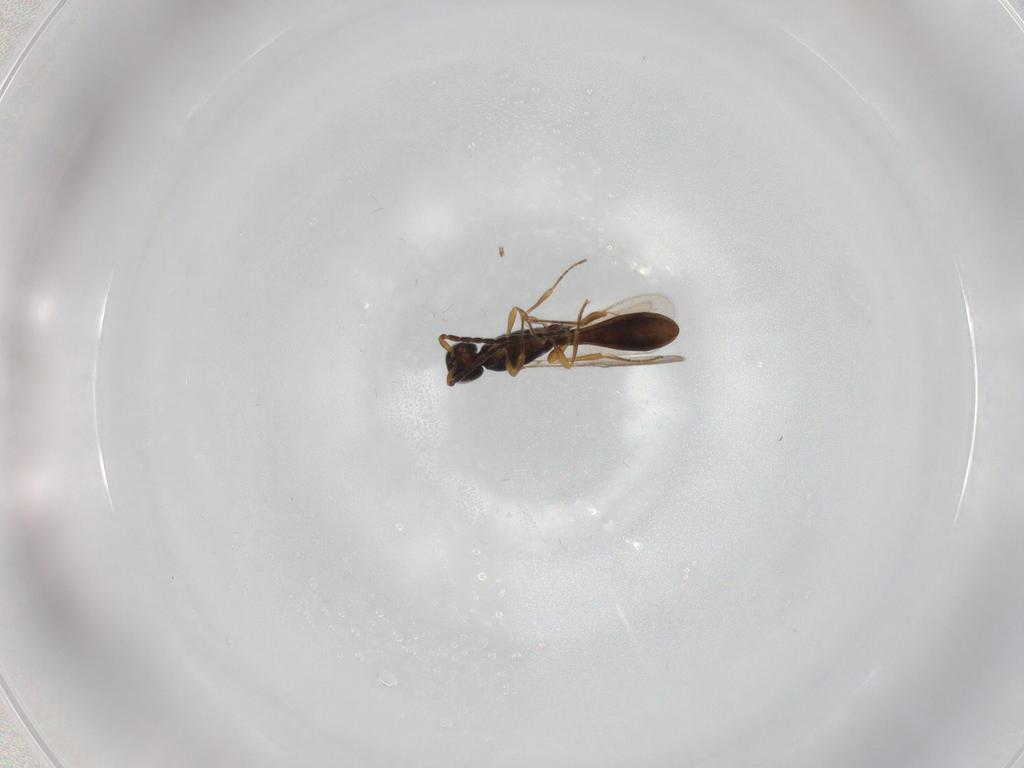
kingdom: Animalia
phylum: Arthropoda
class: Insecta
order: Hymenoptera
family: Scelionidae
